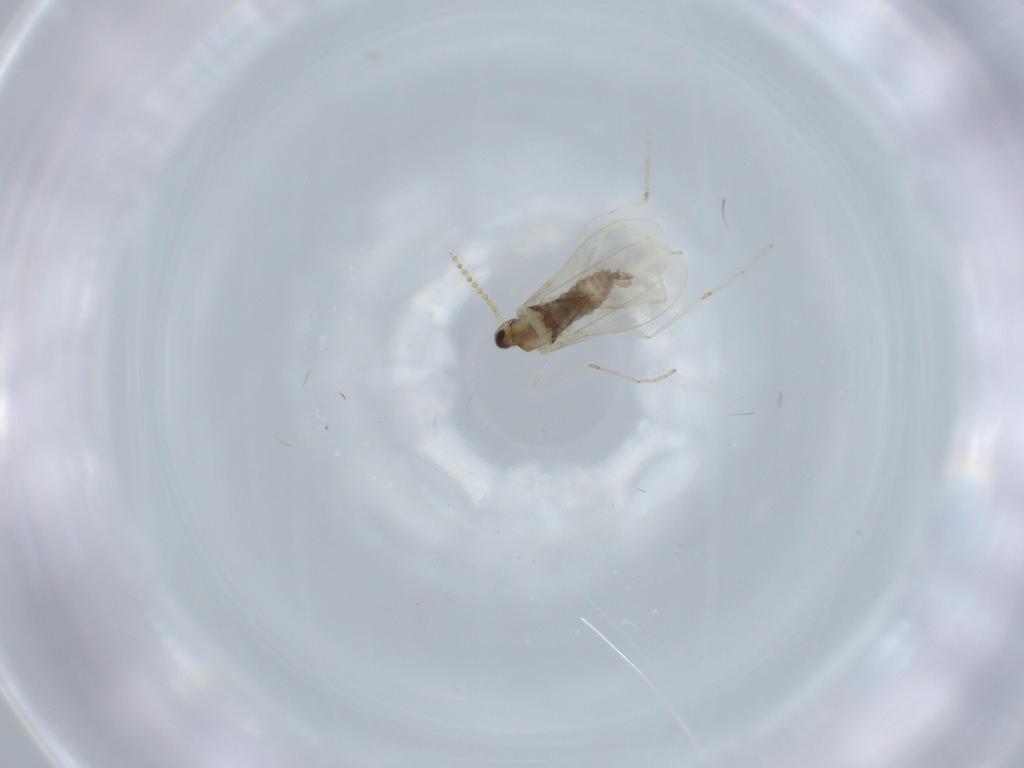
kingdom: Animalia
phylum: Arthropoda
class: Insecta
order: Diptera
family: Cecidomyiidae
